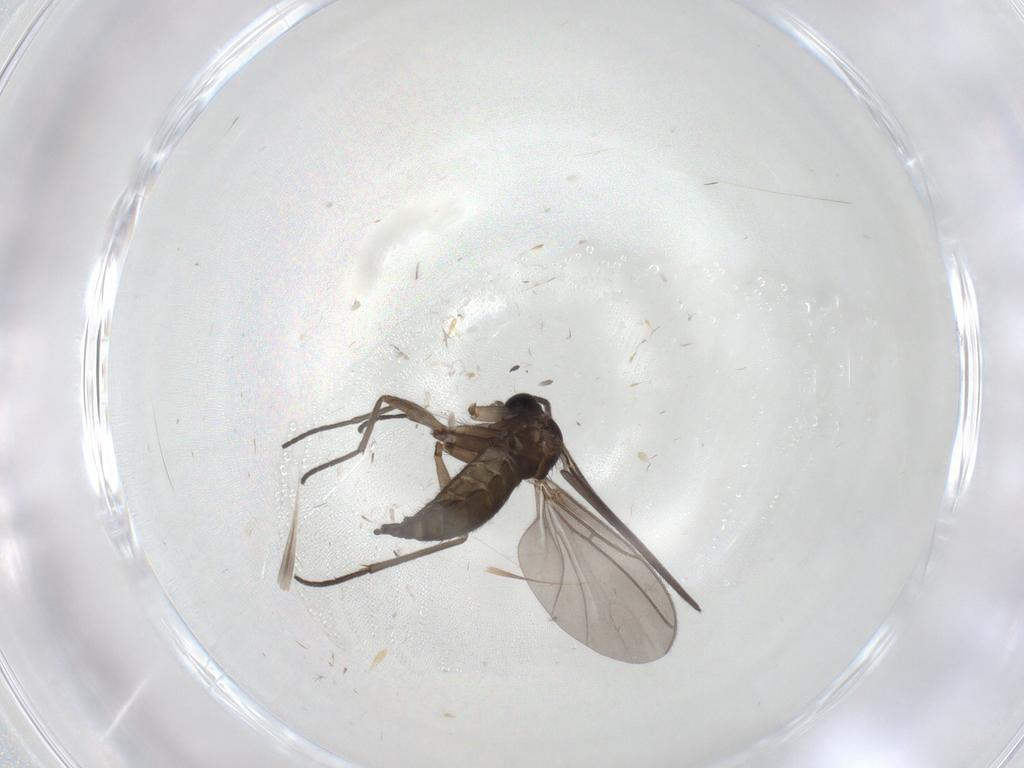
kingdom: Animalia
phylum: Arthropoda
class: Insecta
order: Diptera
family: Sciaridae
